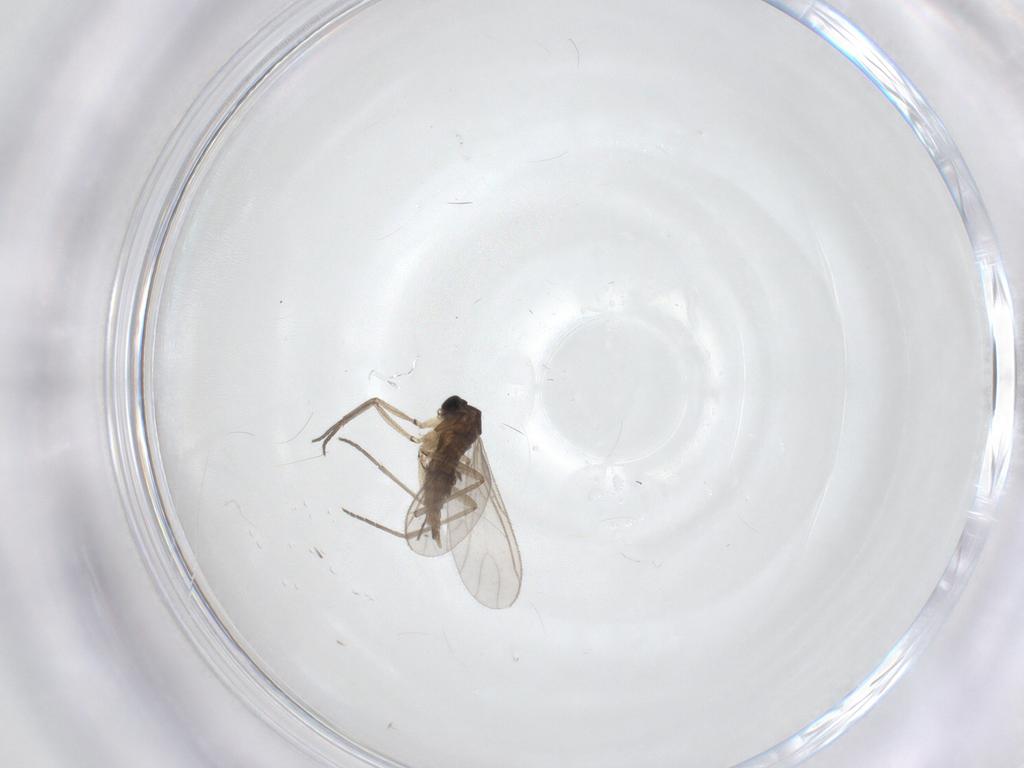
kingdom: Animalia
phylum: Arthropoda
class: Insecta
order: Diptera
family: Sciaridae
